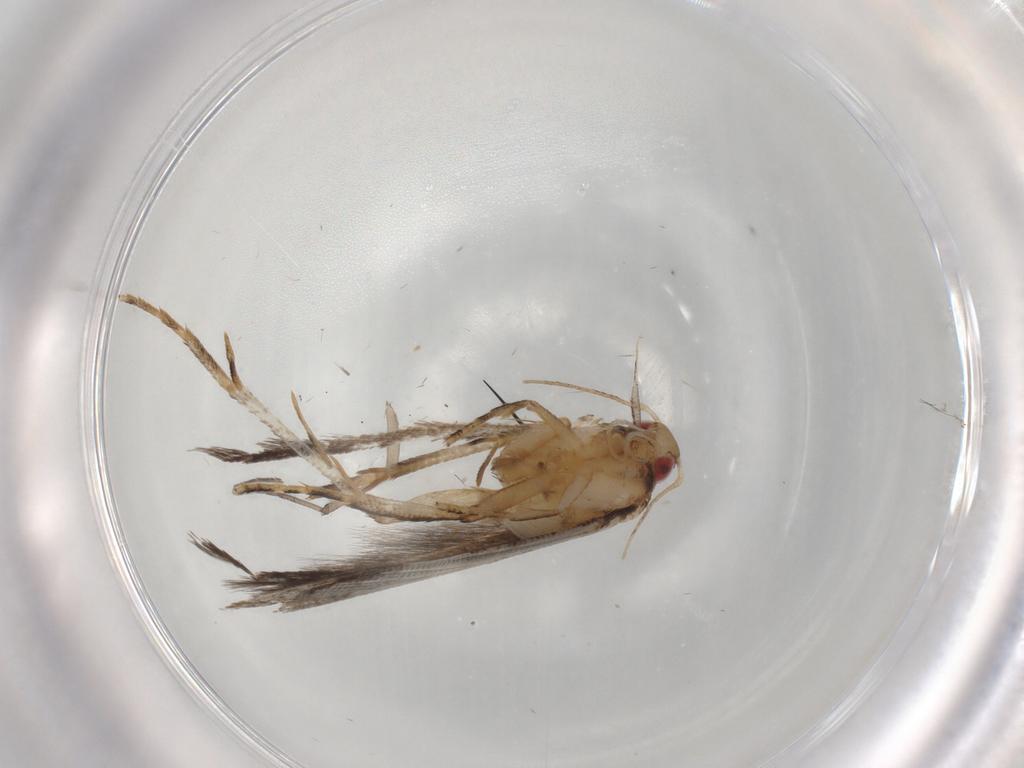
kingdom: Animalia
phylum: Arthropoda
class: Insecta
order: Lepidoptera
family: Gelechiidae
